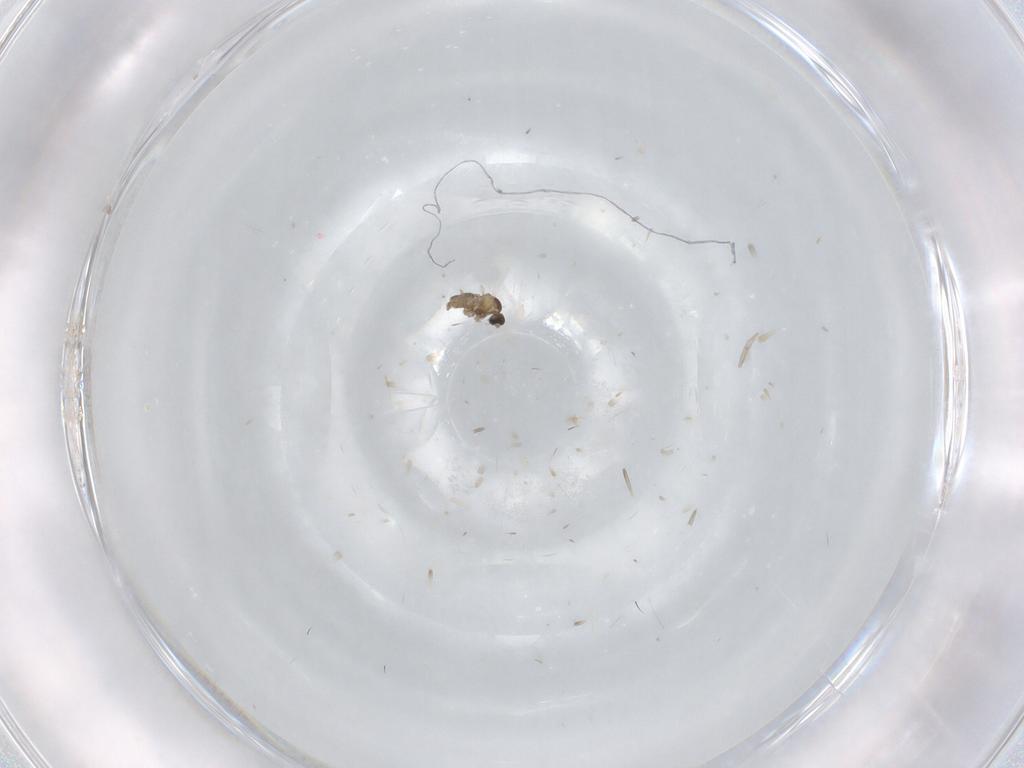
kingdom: Animalia
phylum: Arthropoda
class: Insecta
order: Diptera
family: Cecidomyiidae
